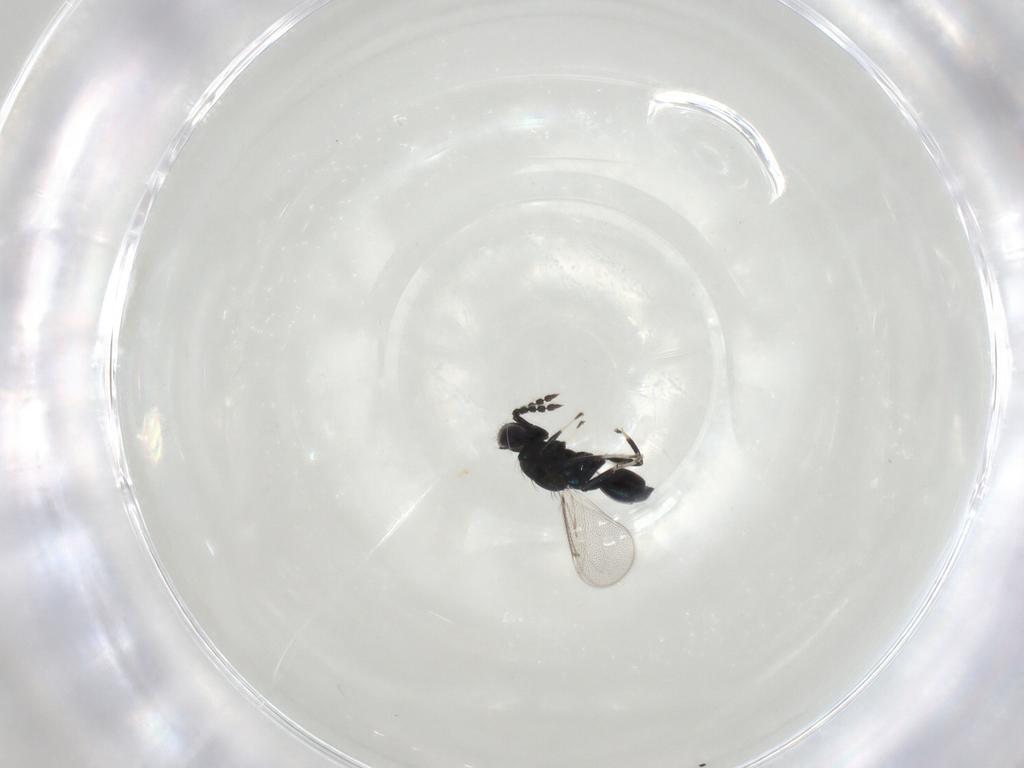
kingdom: Animalia
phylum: Arthropoda
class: Insecta
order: Hymenoptera
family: Eulophidae
